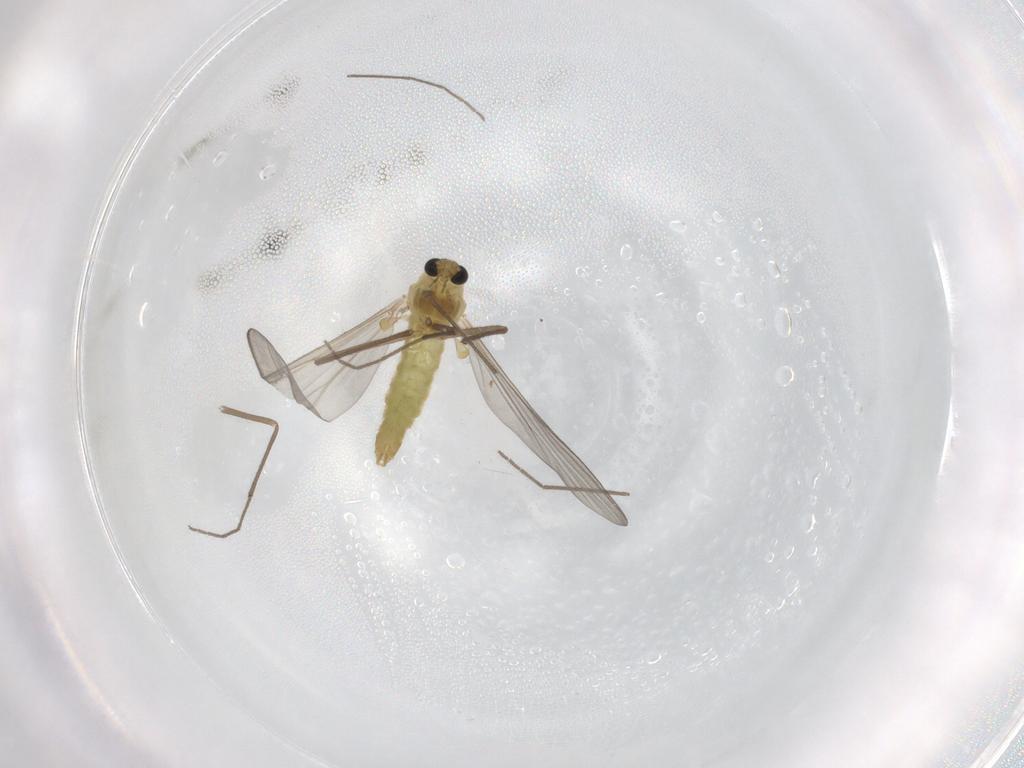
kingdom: Animalia
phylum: Arthropoda
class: Insecta
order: Diptera
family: Chironomidae
